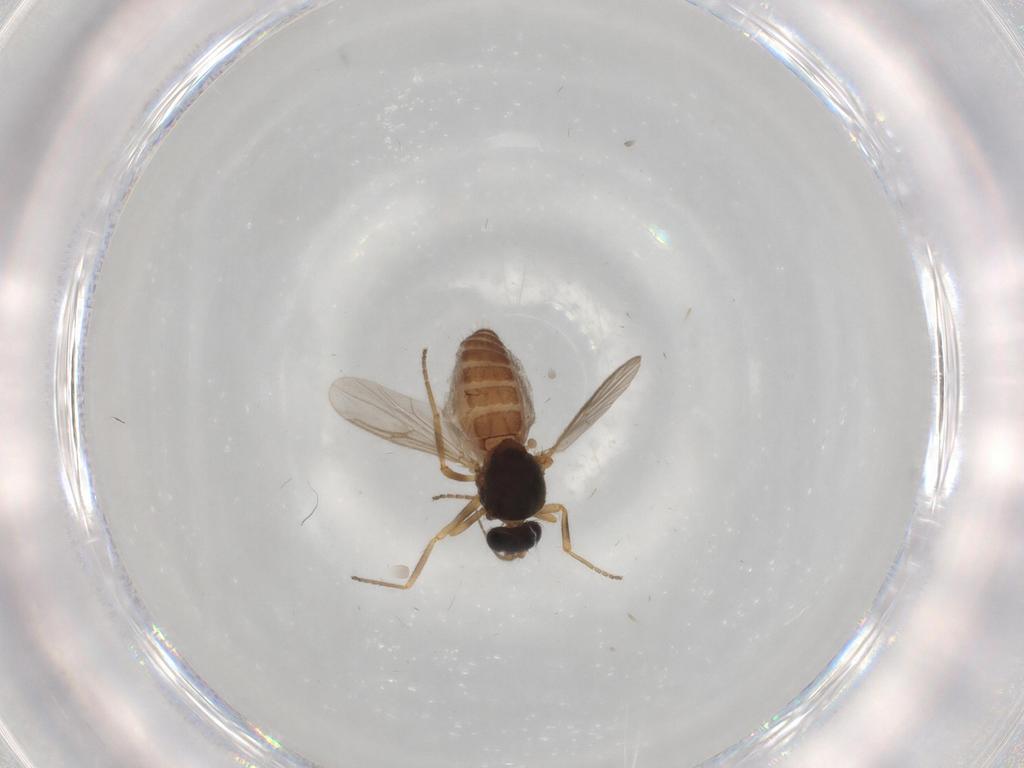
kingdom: Animalia
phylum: Arthropoda
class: Insecta
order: Diptera
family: Ceratopogonidae
